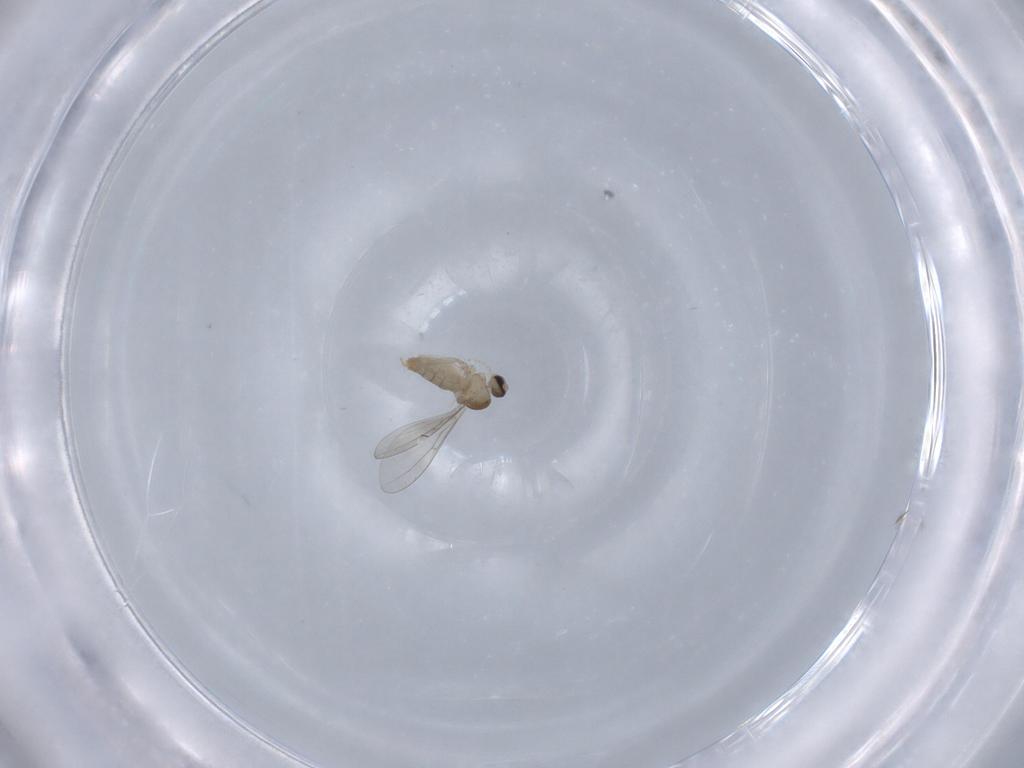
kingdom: Animalia
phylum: Arthropoda
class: Insecta
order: Diptera
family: Cecidomyiidae
